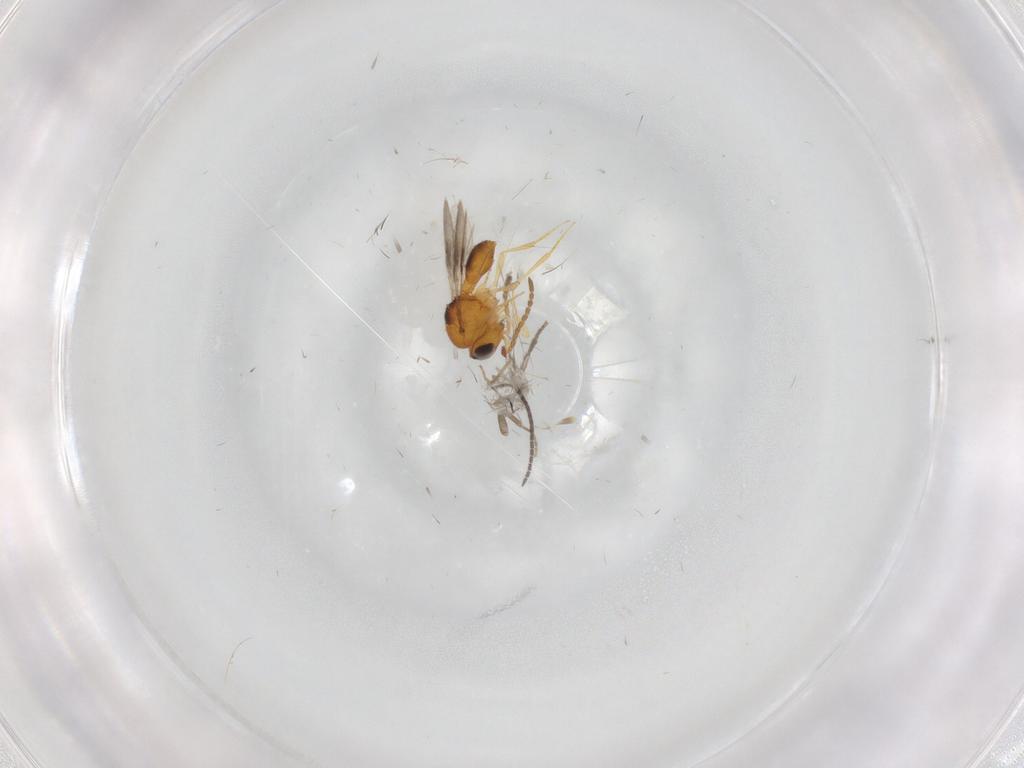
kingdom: Animalia
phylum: Arthropoda
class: Insecta
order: Hymenoptera
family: Scelionidae
